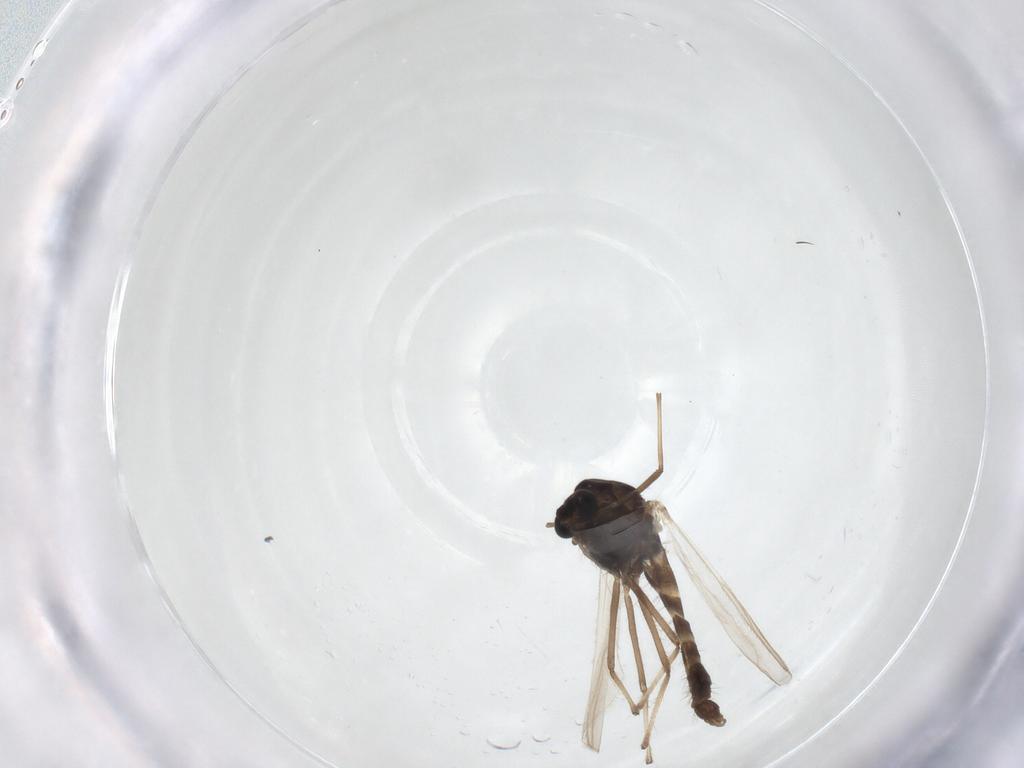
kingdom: Animalia
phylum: Arthropoda
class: Insecta
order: Diptera
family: Chironomidae
